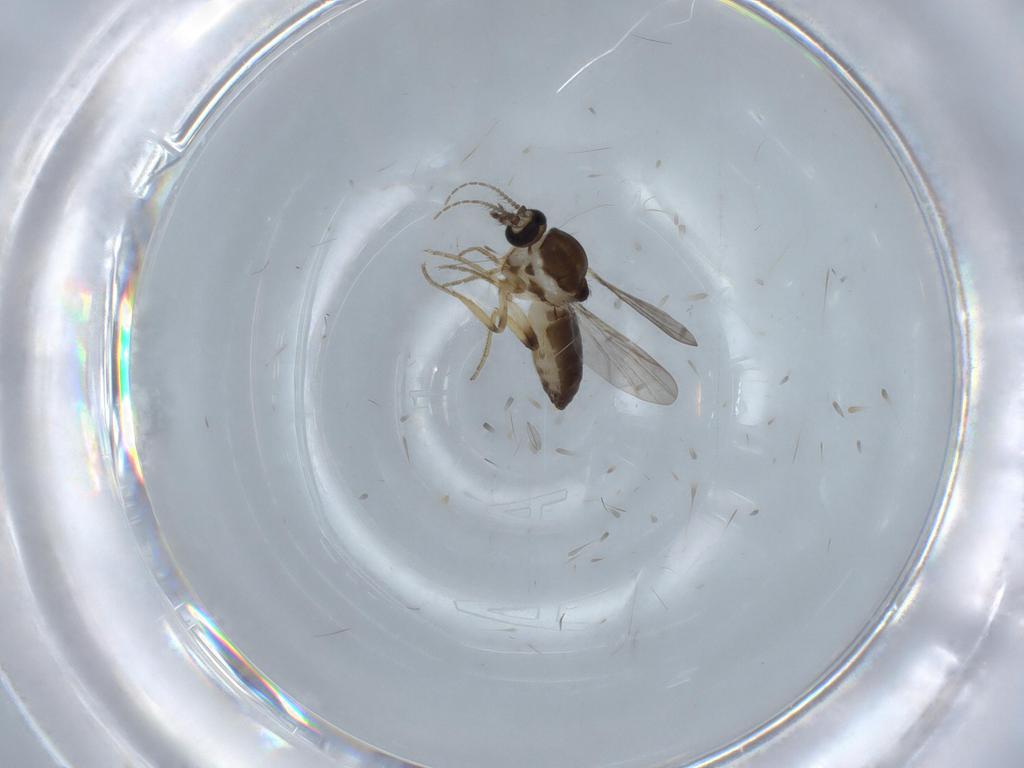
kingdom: Animalia
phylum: Arthropoda
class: Insecta
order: Diptera
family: Ceratopogonidae
